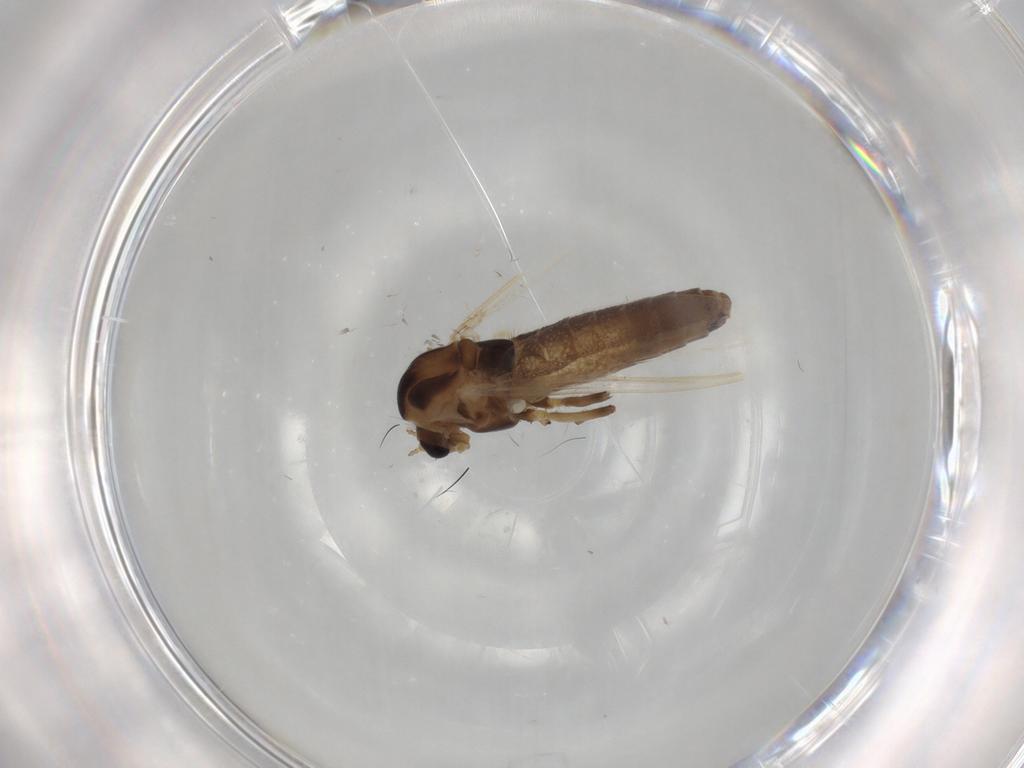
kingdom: Animalia
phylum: Arthropoda
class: Insecta
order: Diptera
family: Chironomidae
